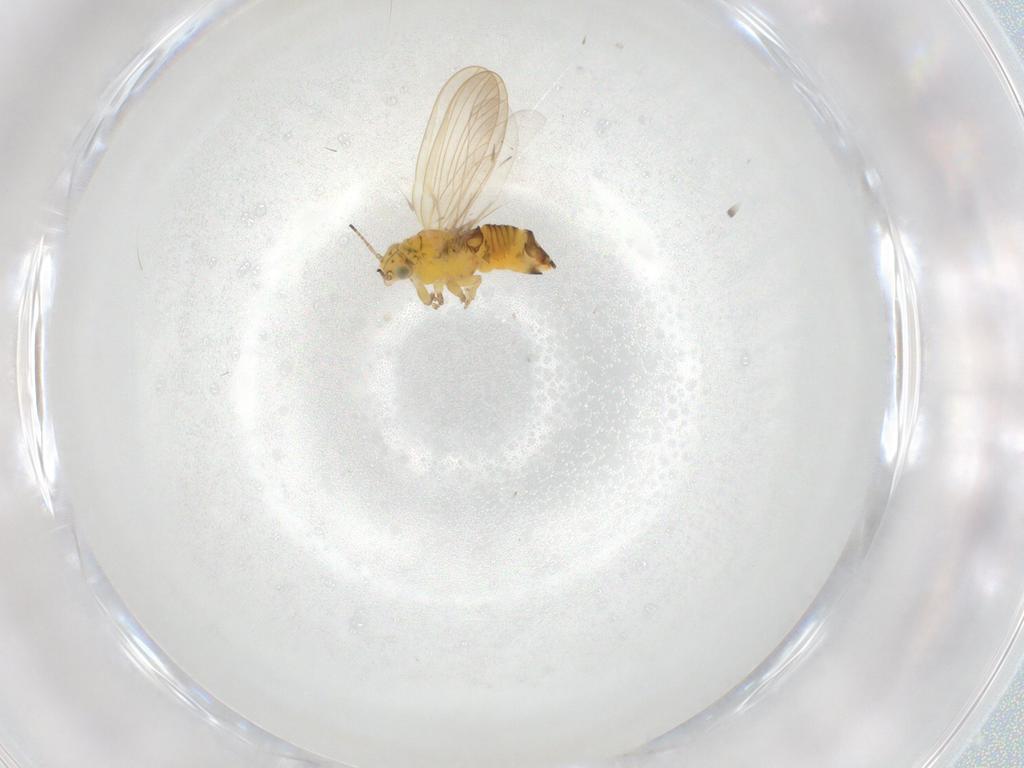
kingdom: Animalia
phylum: Arthropoda
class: Insecta
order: Hemiptera
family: Aphalaridae
